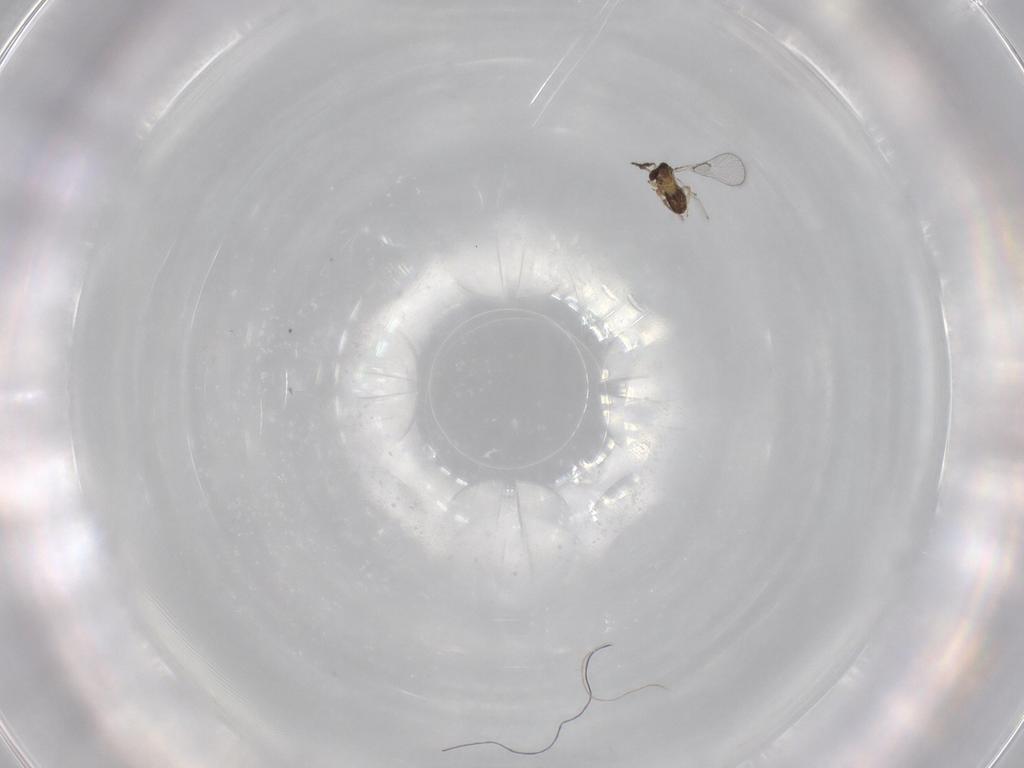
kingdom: Animalia
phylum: Arthropoda
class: Insecta
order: Hymenoptera
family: Trichogrammatidae
